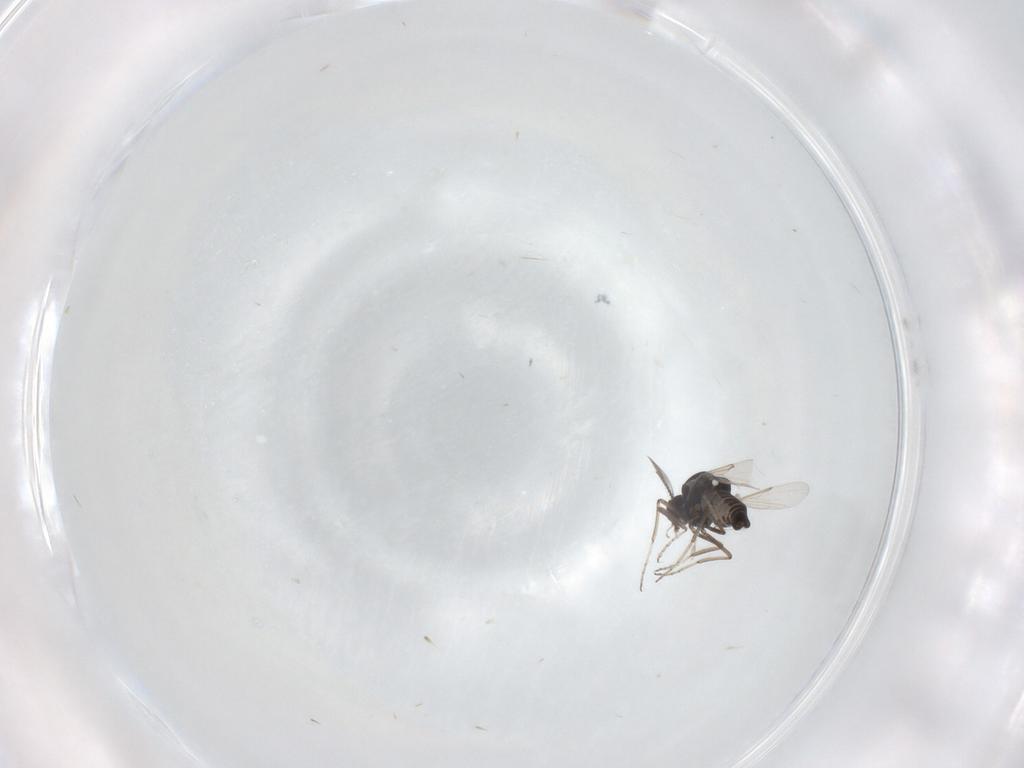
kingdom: Animalia
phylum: Arthropoda
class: Insecta
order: Diptera
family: Ceratopogonidae
